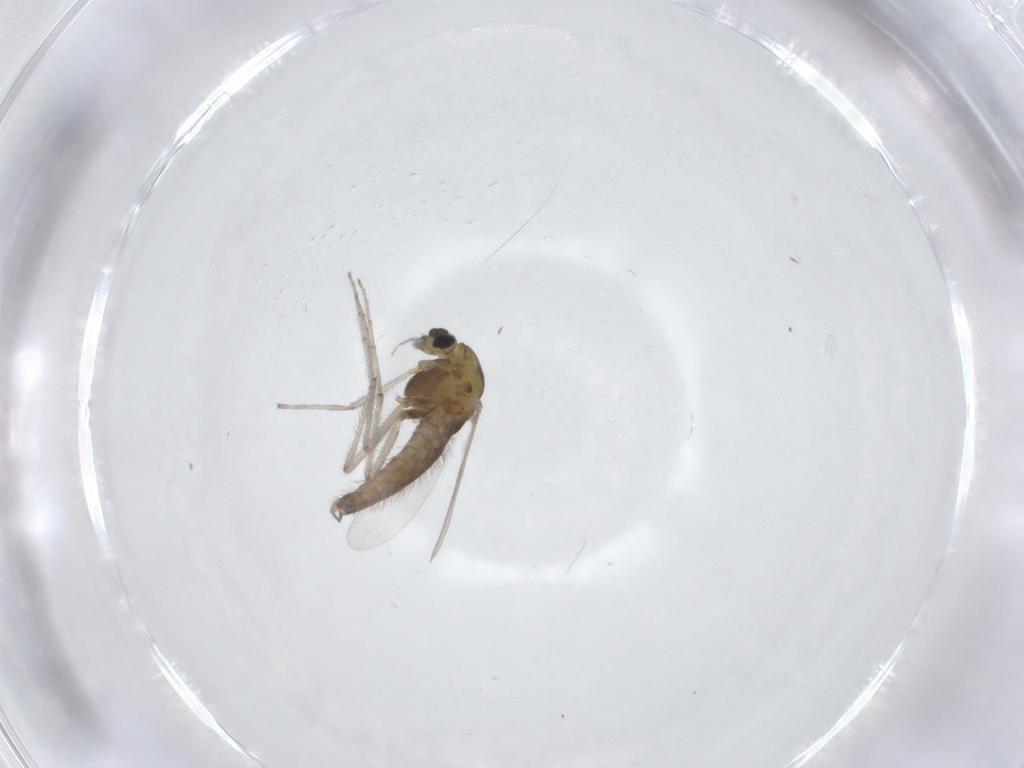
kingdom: Animalia
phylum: Arthropoda
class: Insecta
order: Diptera
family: Chironomidae
